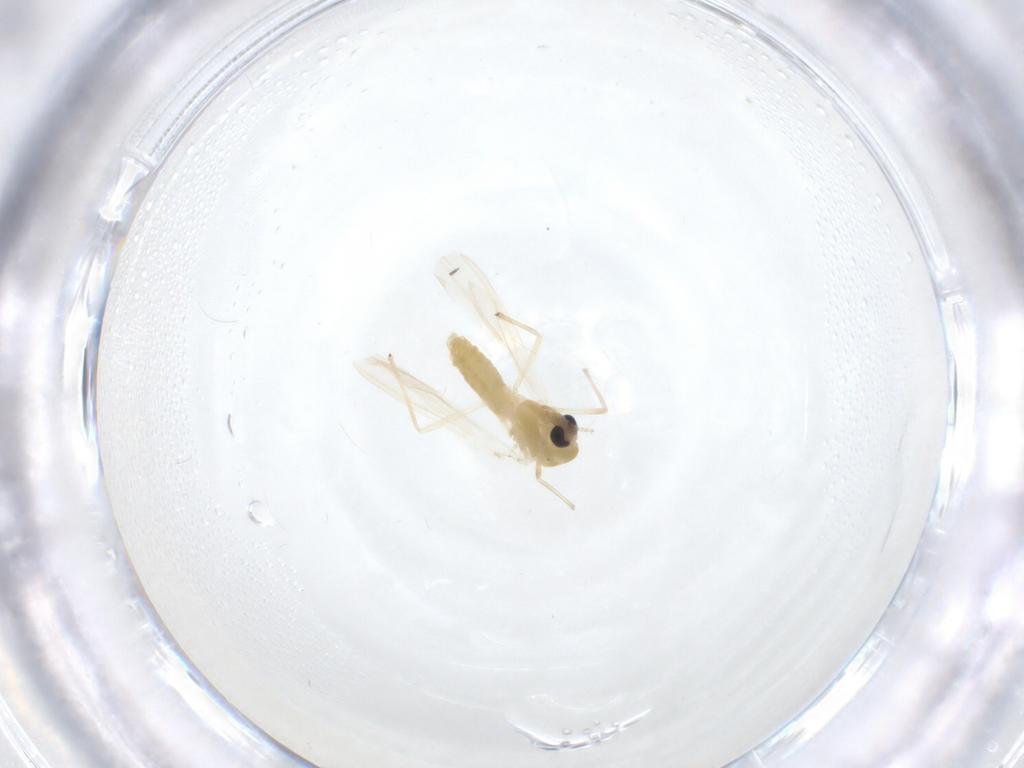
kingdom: Animalia
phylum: Arthropoda
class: Insecta
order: Diptera
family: Sciaridae
